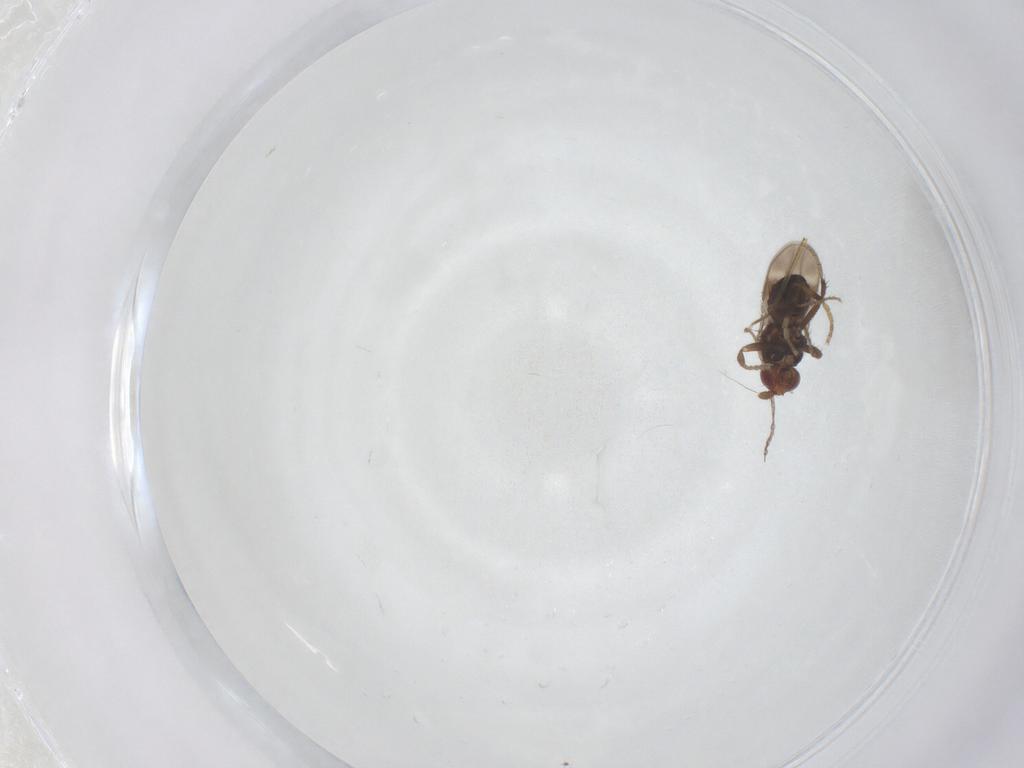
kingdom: Animalia
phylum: Arthropoda
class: Insecta
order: Diptera
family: Sphaeroceridae
